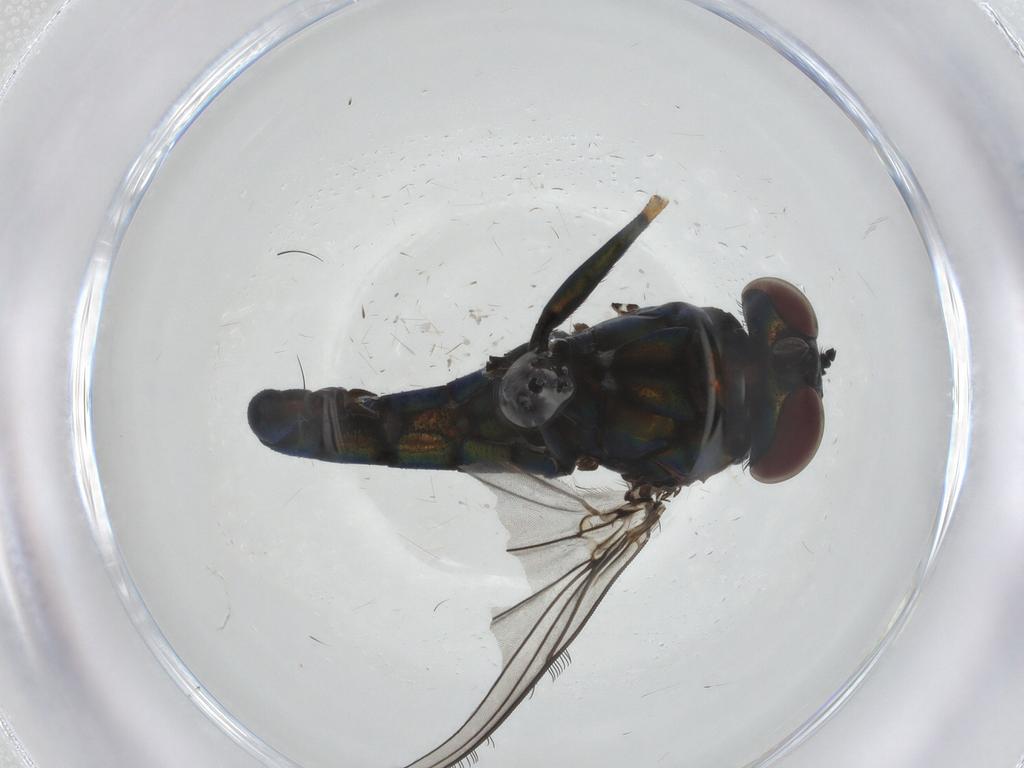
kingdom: Animalia
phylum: Arthropoda
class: Insecta
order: Diptera
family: Dolichopodidae
